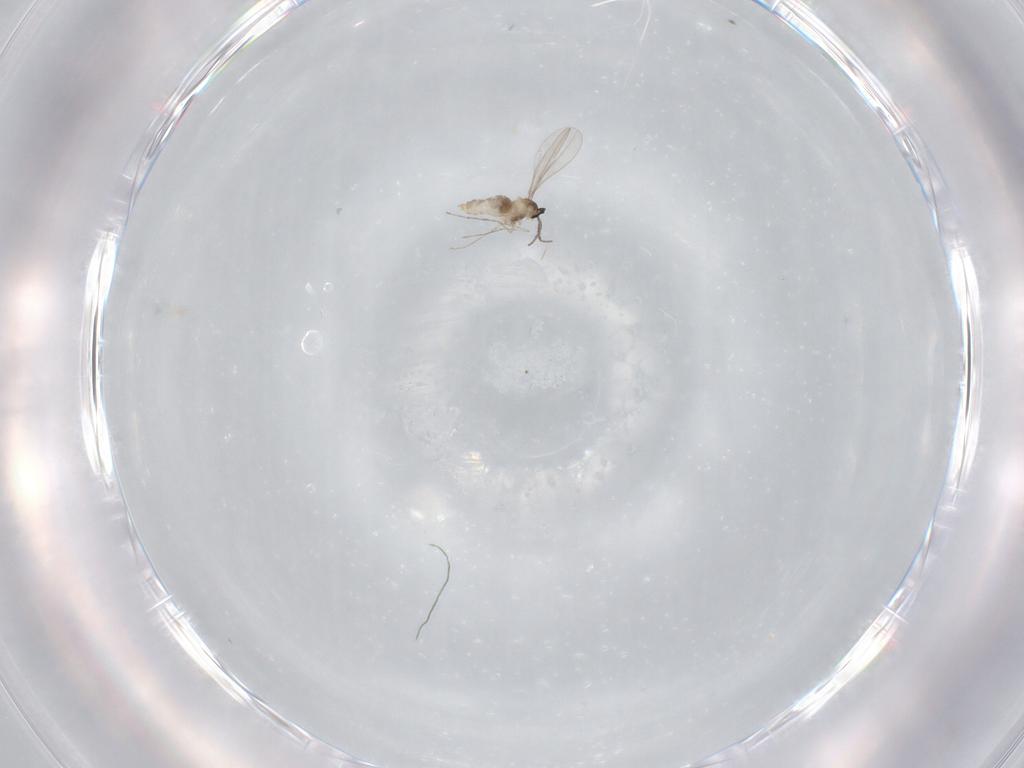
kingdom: Animalia
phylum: Arthropoda
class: Insecta
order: Diptera
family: Cecidomyiidae
